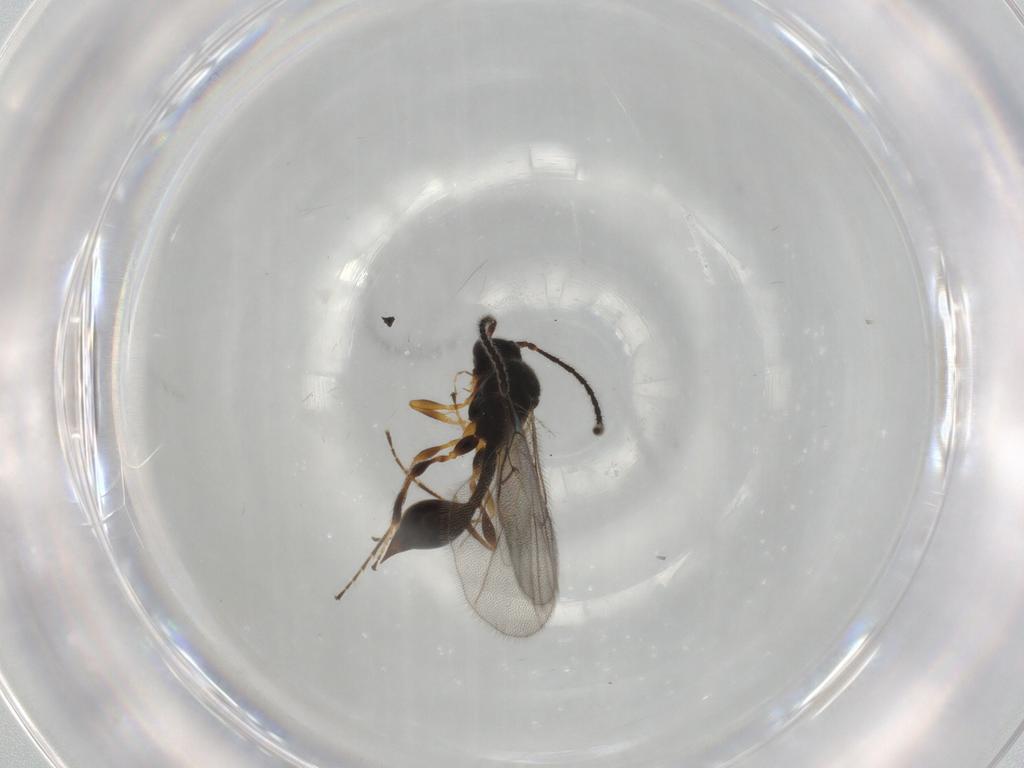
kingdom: Animalia
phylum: Arthropoda
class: Insecta
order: Hymenoptera
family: Diapriidae
